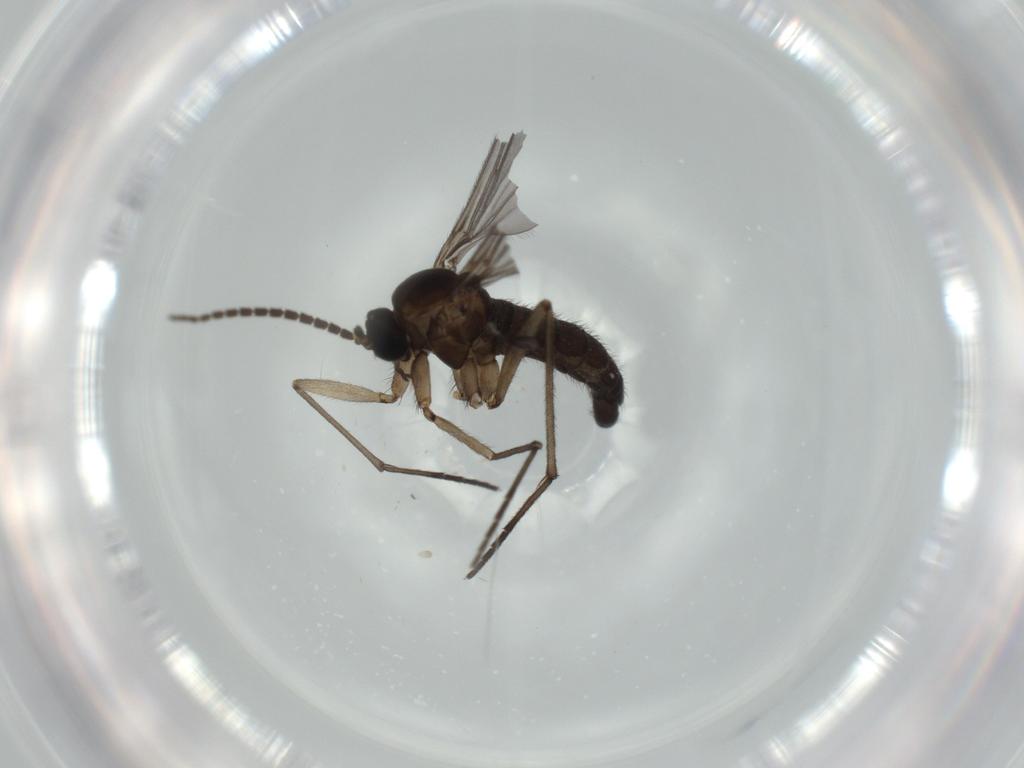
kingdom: Animalia
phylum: Arthropoda
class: Insecta
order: Diptera
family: Sciaridae
